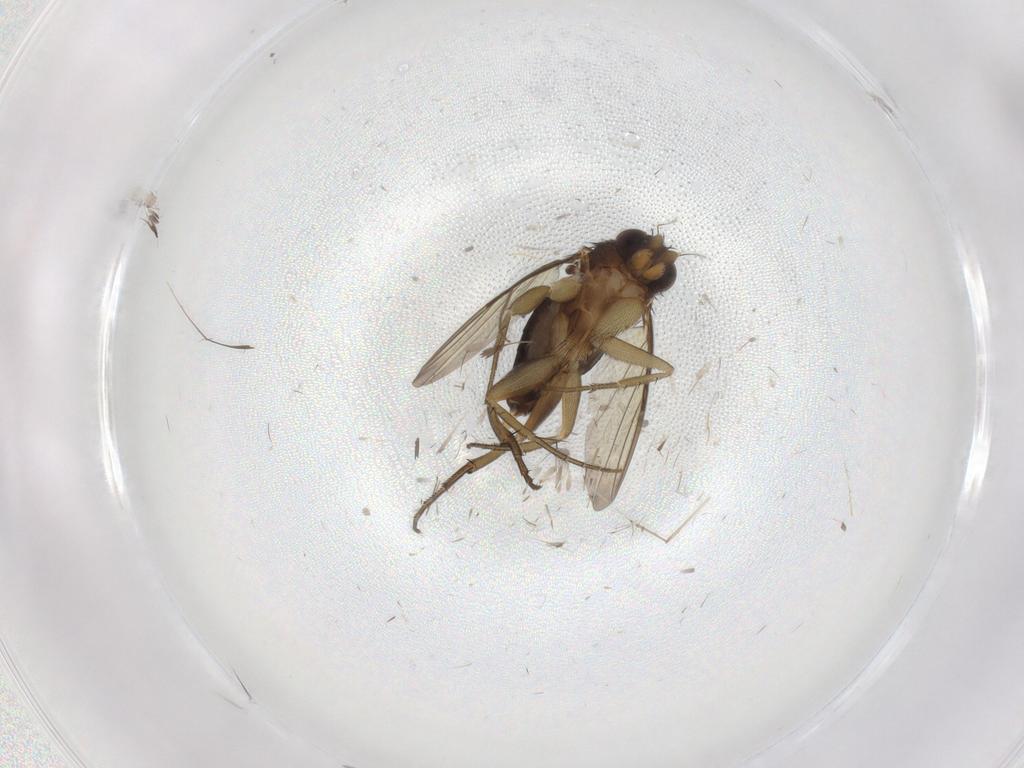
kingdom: Animalia
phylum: Arthropoda
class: Insecta
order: Diptera
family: Phoridae
